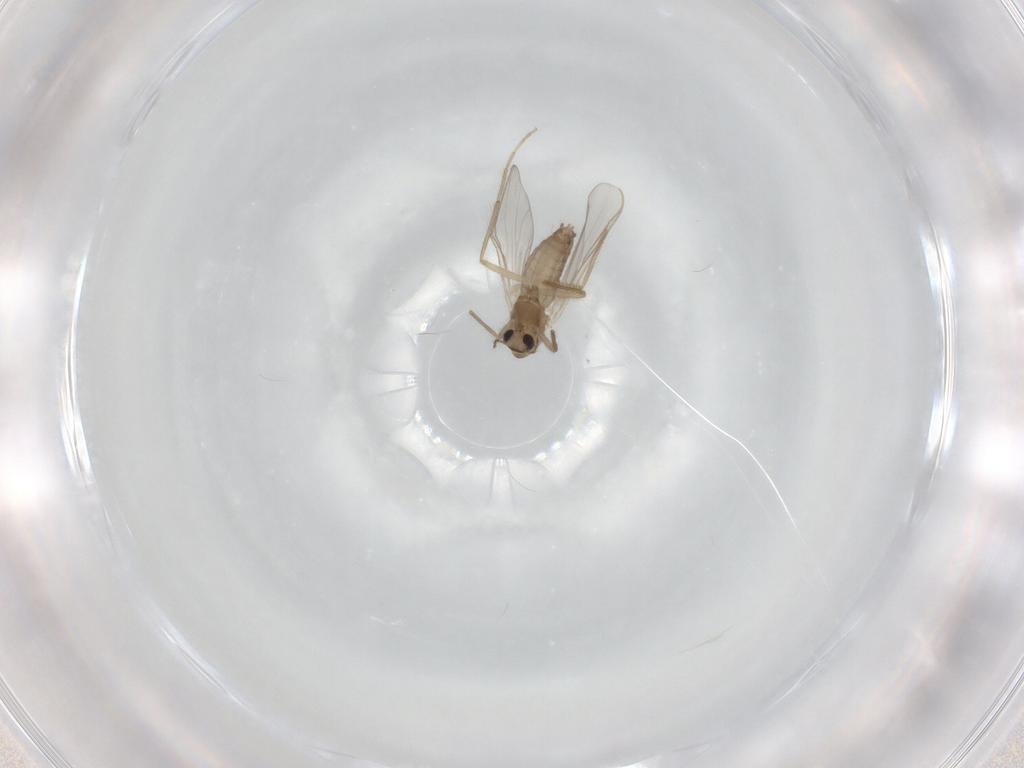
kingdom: Animalia
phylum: Arthropoda
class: Insecta
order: Diptera
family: Chironomidae
